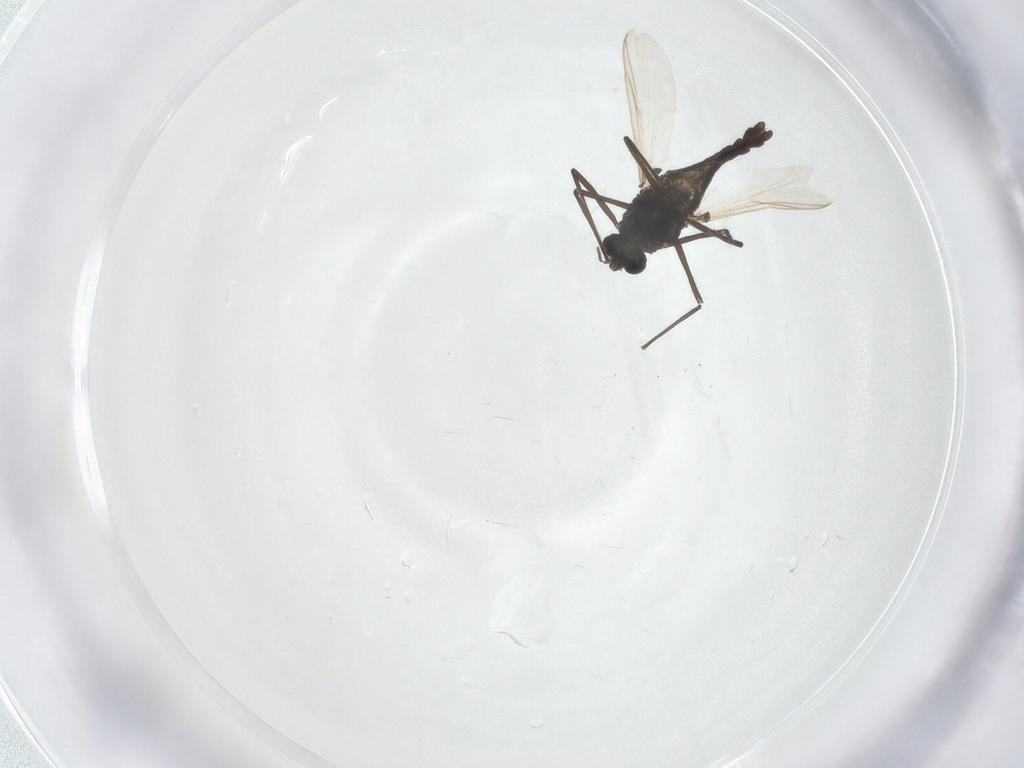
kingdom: Animalia
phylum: Arthropoda
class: Insecta
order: Diptera
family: Chironomidae
